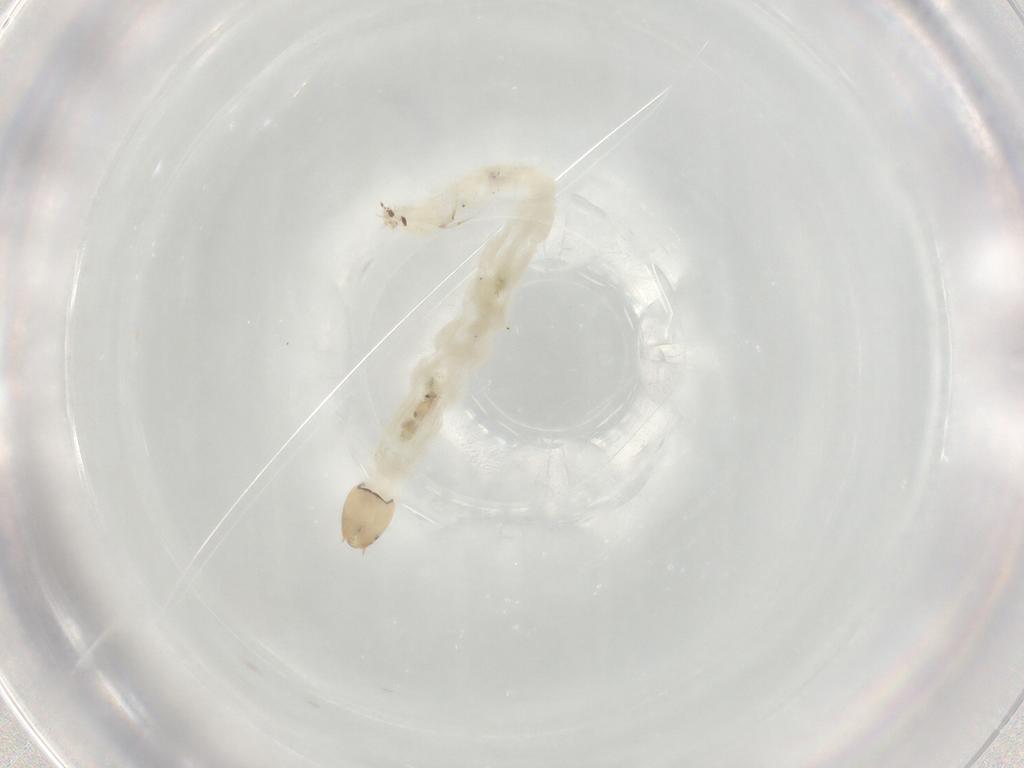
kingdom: Animalia
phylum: Arthropoda
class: Insecta
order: Diptera
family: Chironomidae
